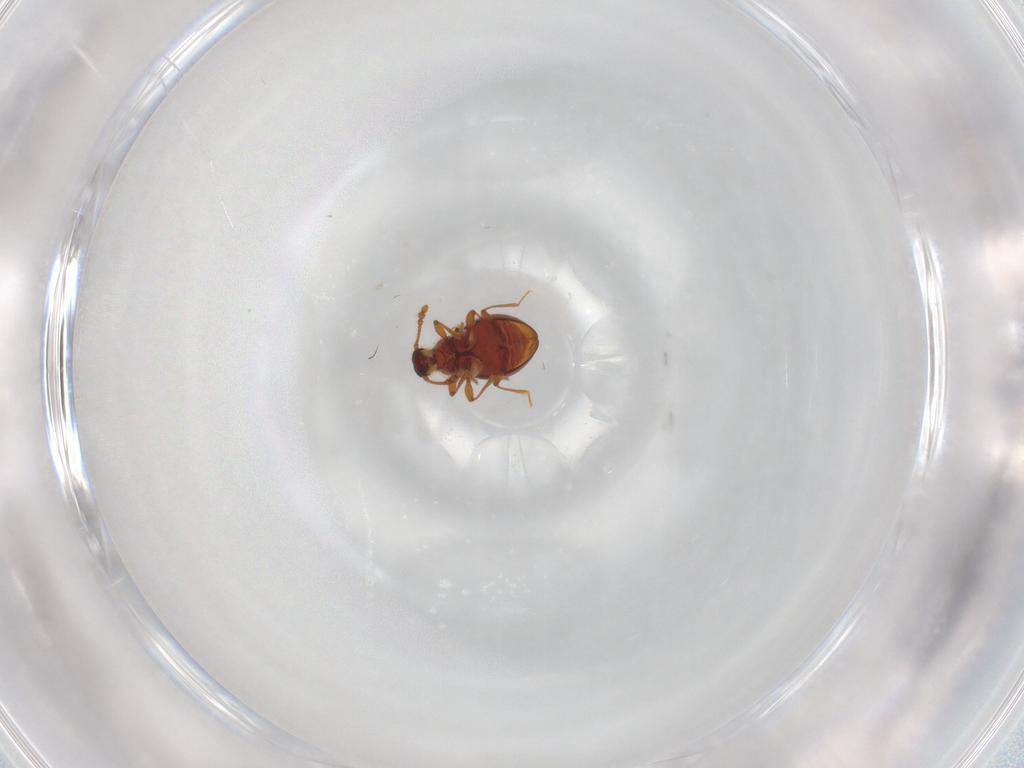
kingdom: Animalia
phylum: Arthropoda
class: Insecta
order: Coleoptera
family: Staphylinidae
